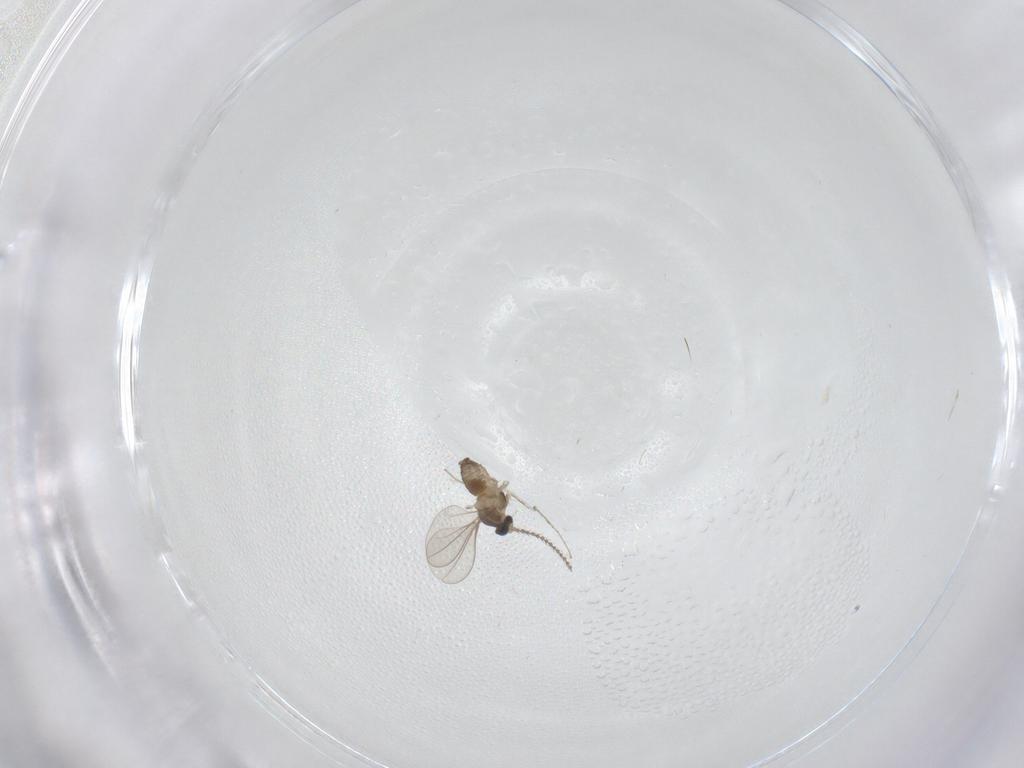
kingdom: Animalia
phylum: Arthropoda
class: Insecta
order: Diptera
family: Cecidomyiidae
